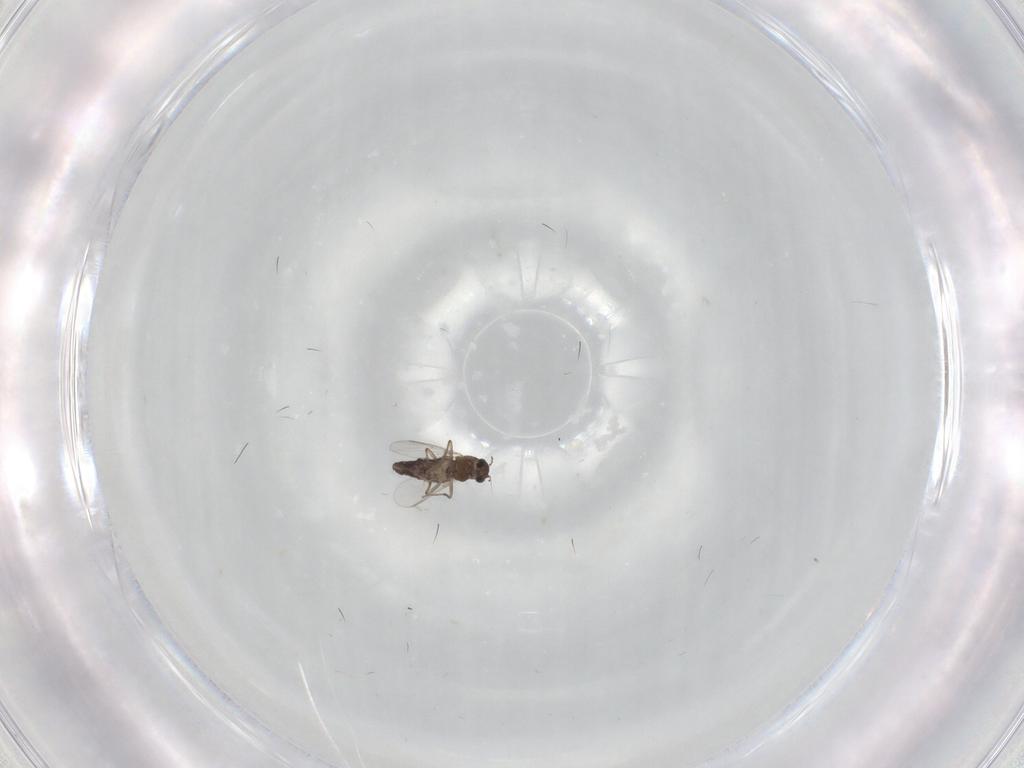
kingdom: Animalia
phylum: Arthropoda
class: Insecta
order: Diptera
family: Chironomidae
